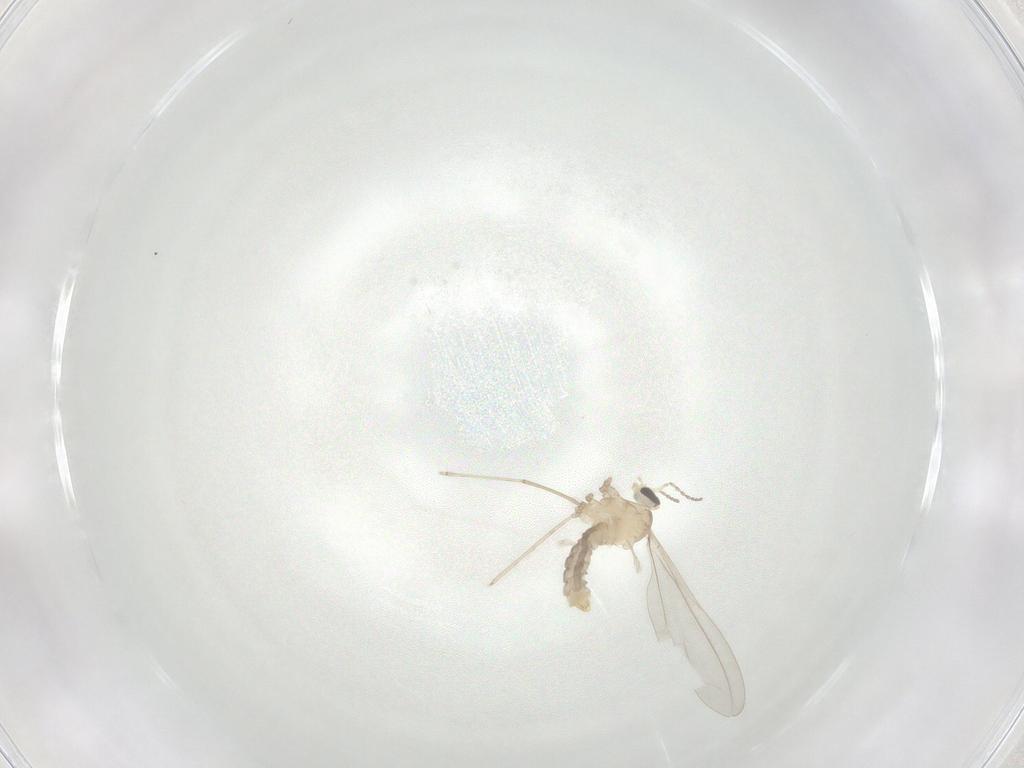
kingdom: Animalia
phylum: Arthropoda
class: Insecta
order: Diptera
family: Cecidomyiidae
